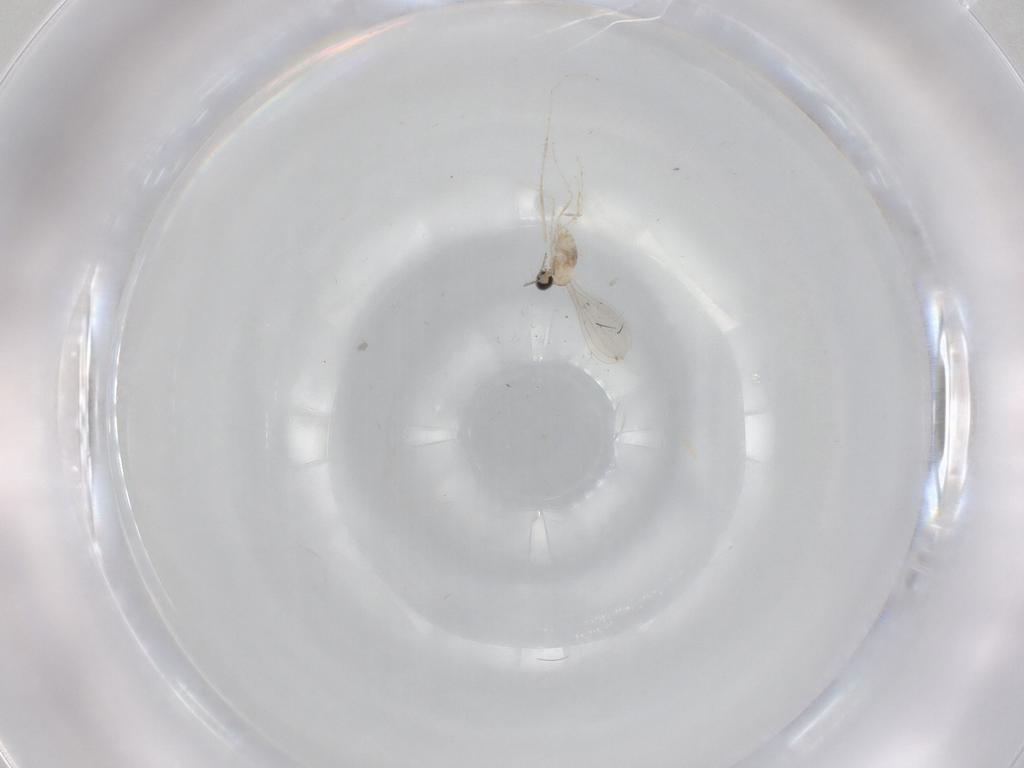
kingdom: Animalia
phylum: Arthropoda
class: Insecta
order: Diptera
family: Cecidomyiidae
